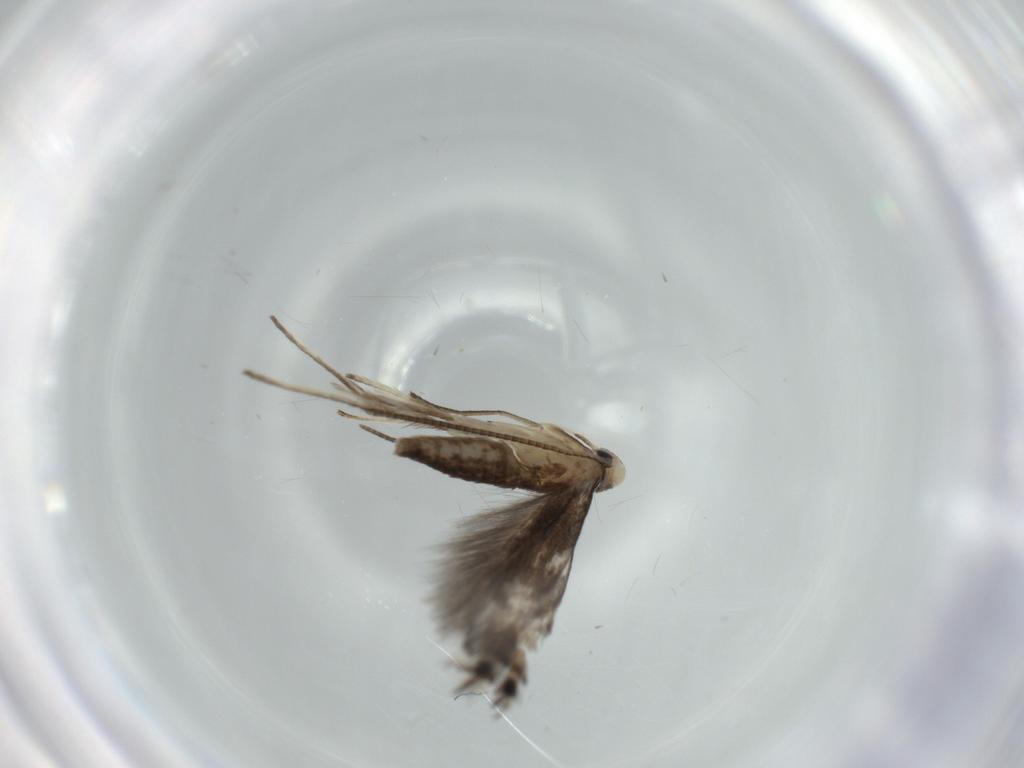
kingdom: Animalia
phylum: Arthropoda
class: Insecta
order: Lepidoptera
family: Gracillariidae
